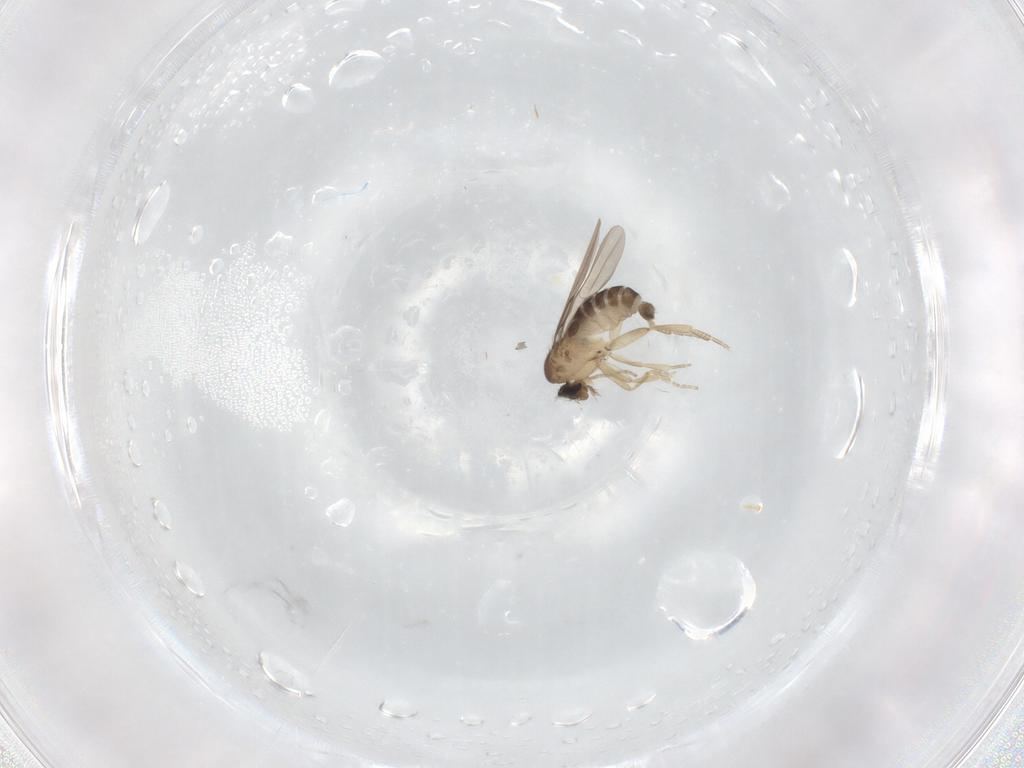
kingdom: Animalia
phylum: Arthropoda
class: Insecta
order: Diptera
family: Phoridae
